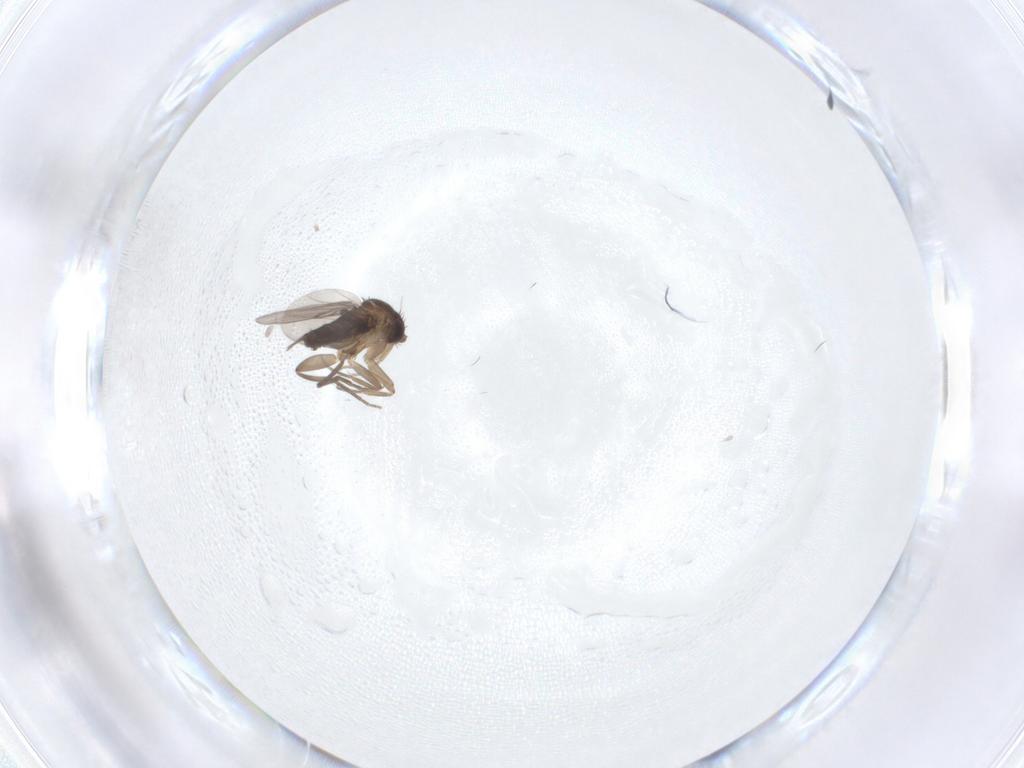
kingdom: Animalia
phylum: Arthropoda
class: Insecta
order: Diptera
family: Phoridae
